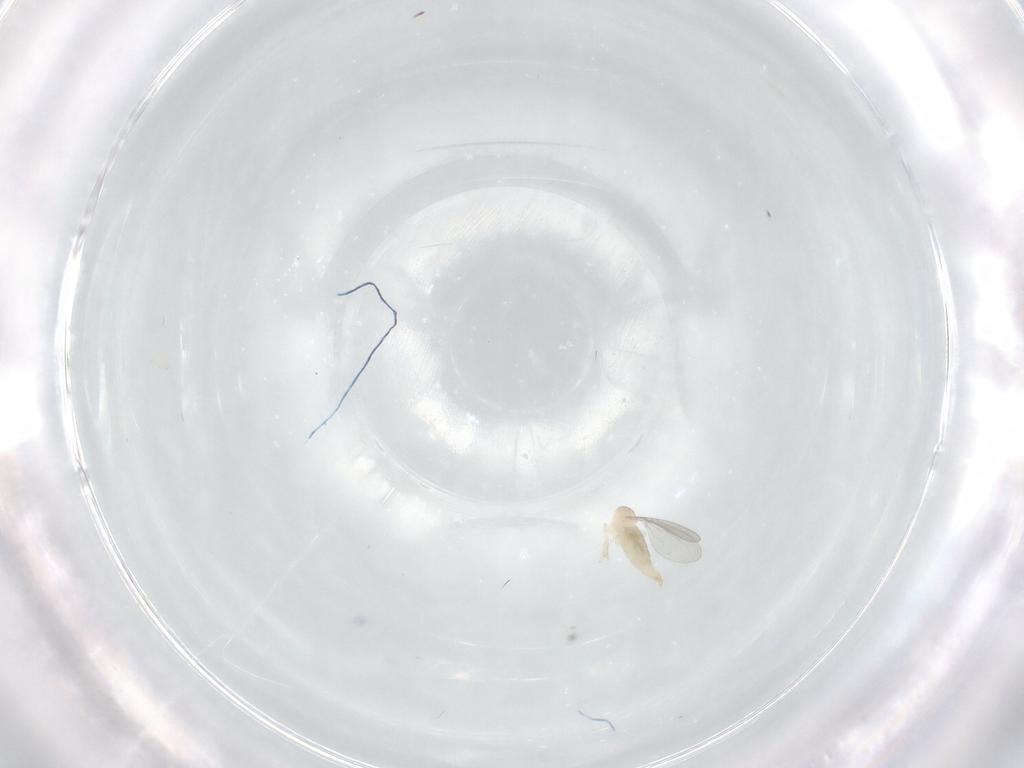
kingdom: Animalia
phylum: Arthropoda
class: Insecta
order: Diptera
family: Cecidomyiidae
